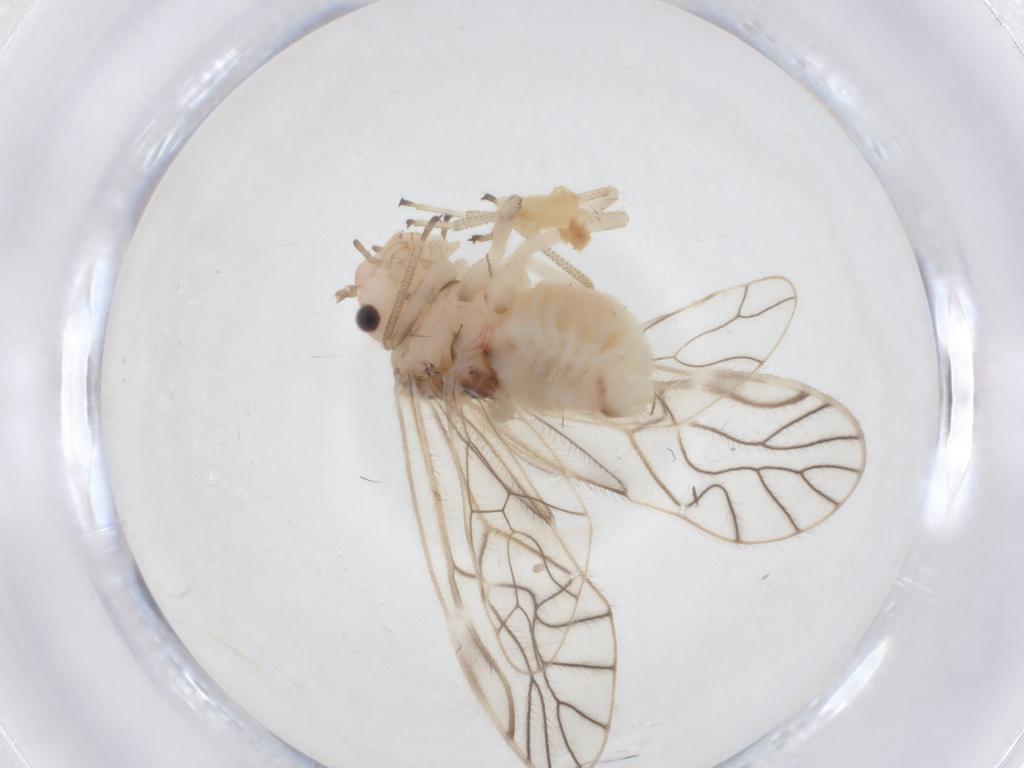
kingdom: Animalia
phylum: Arthropoda
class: Insecta
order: Psocodea
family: Amphipsocidae
